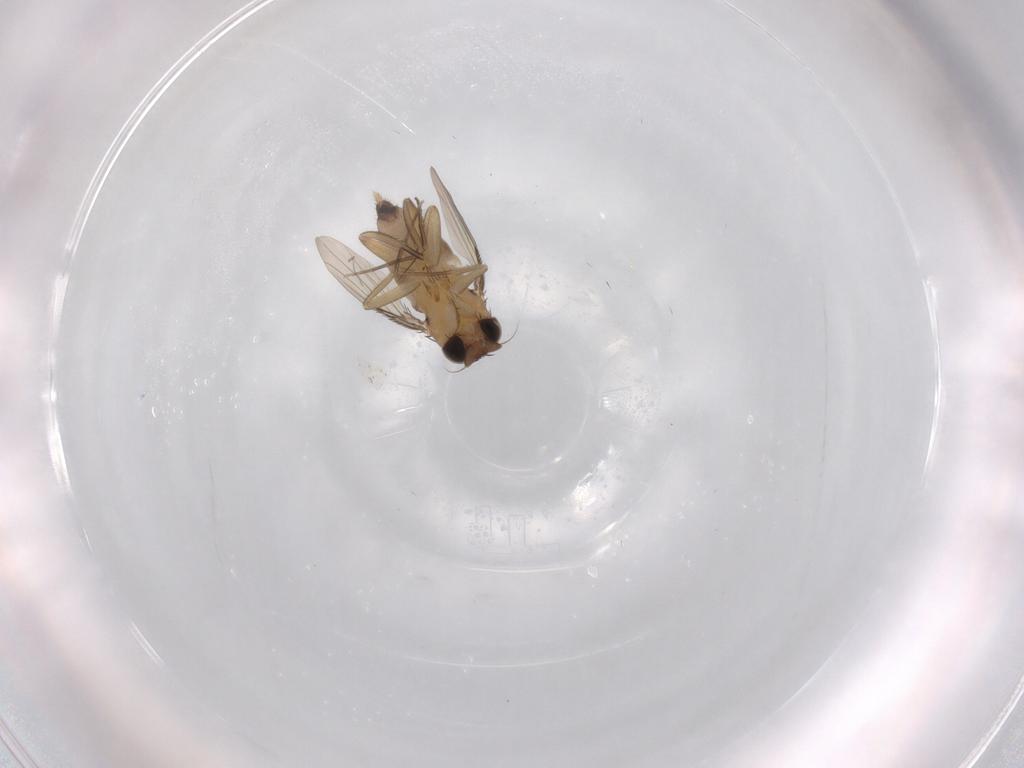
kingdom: Animalia
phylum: Arthropoda
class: Insecta
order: Diptera
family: Phoridae
